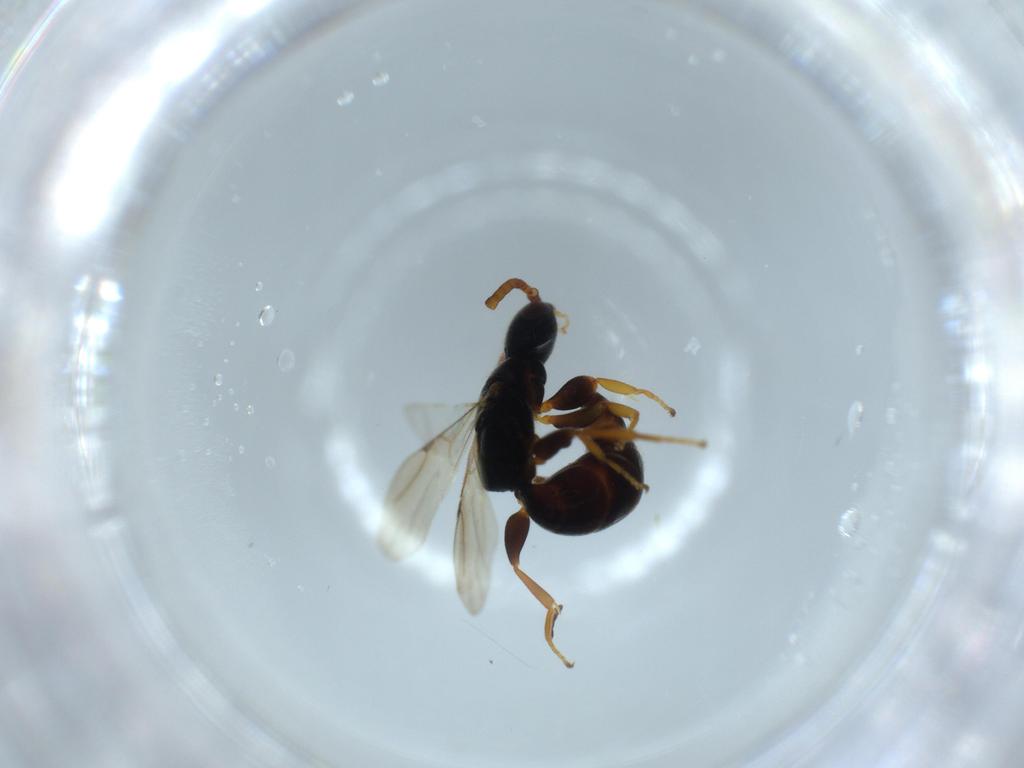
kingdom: Animalia
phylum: Arthropoda
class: Insecta
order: Hymenoptera
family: Bethylidae
